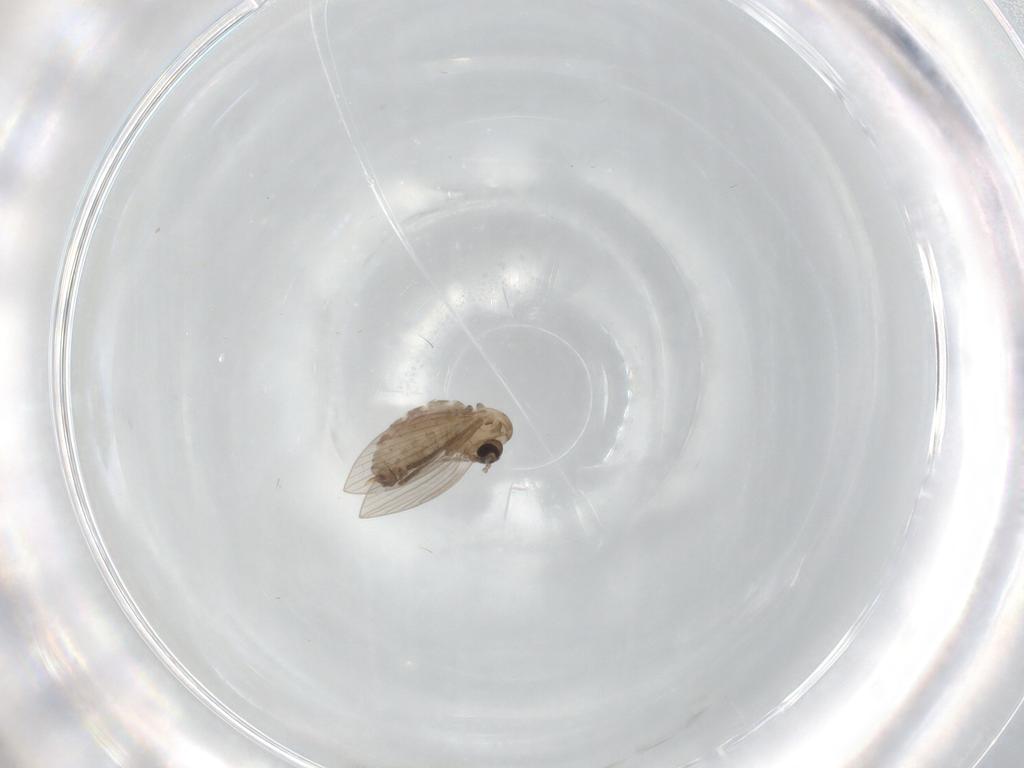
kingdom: Animalia
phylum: Arthropoda
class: Insecta
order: Diptera
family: Psychodidae
